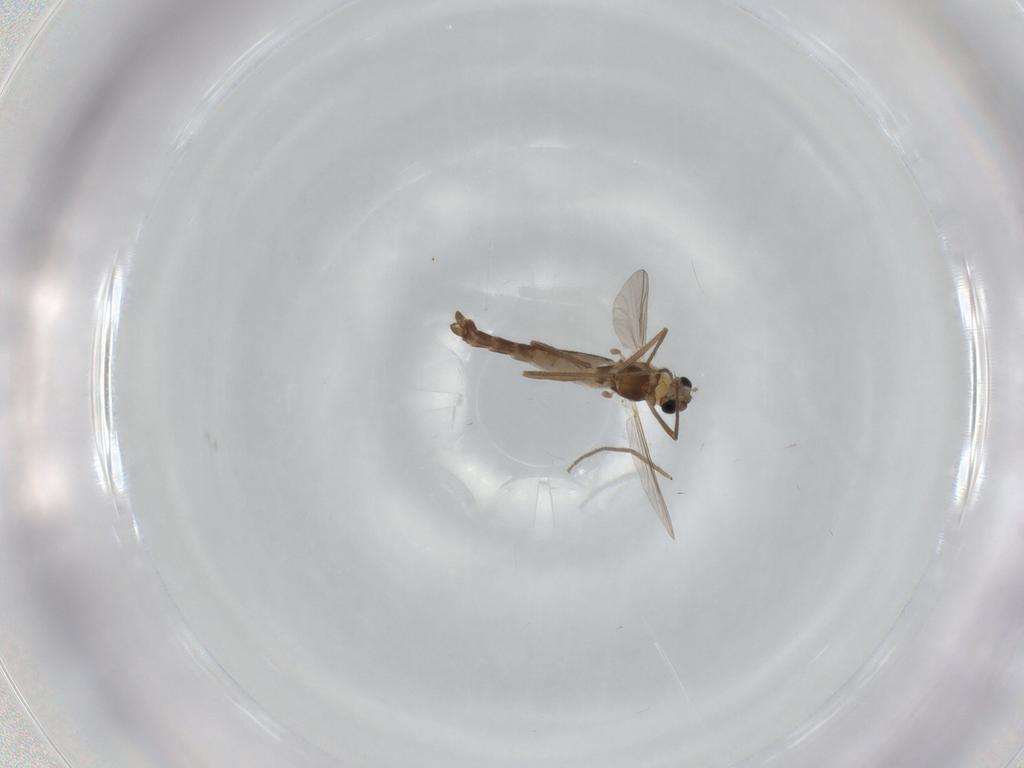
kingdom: Animalia
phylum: Arthropoda
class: Insecta
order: Diptera
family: Chironomidae
